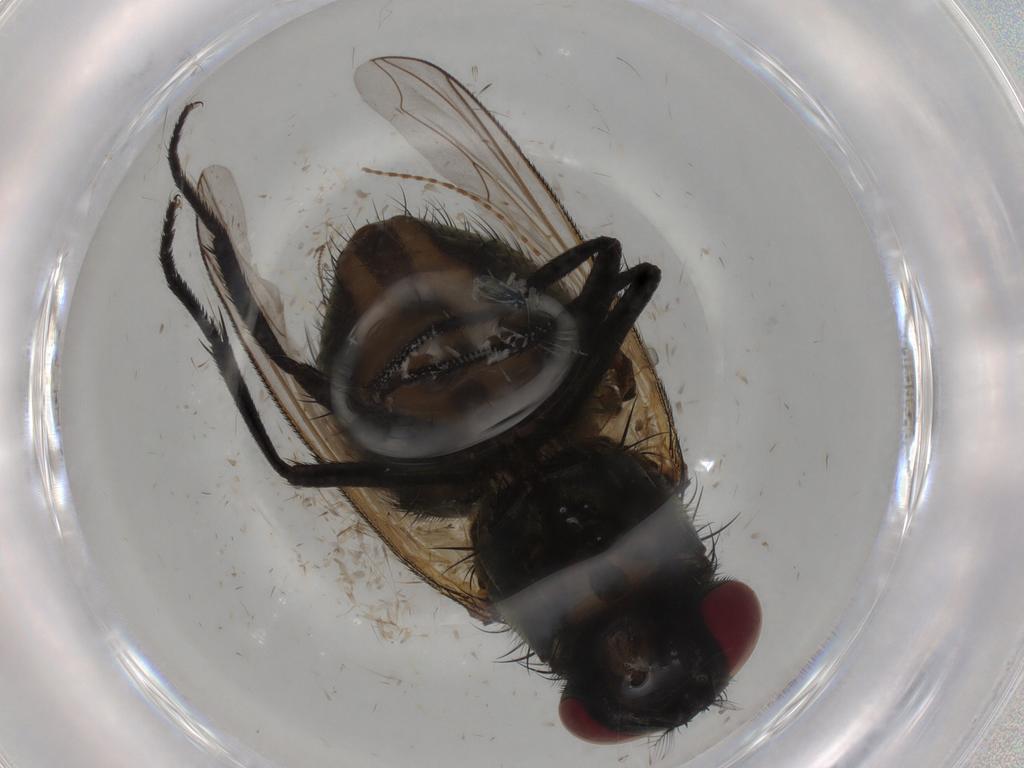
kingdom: Animalia
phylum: Arthropoda
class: Insecta
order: Diptera
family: Muscidae
